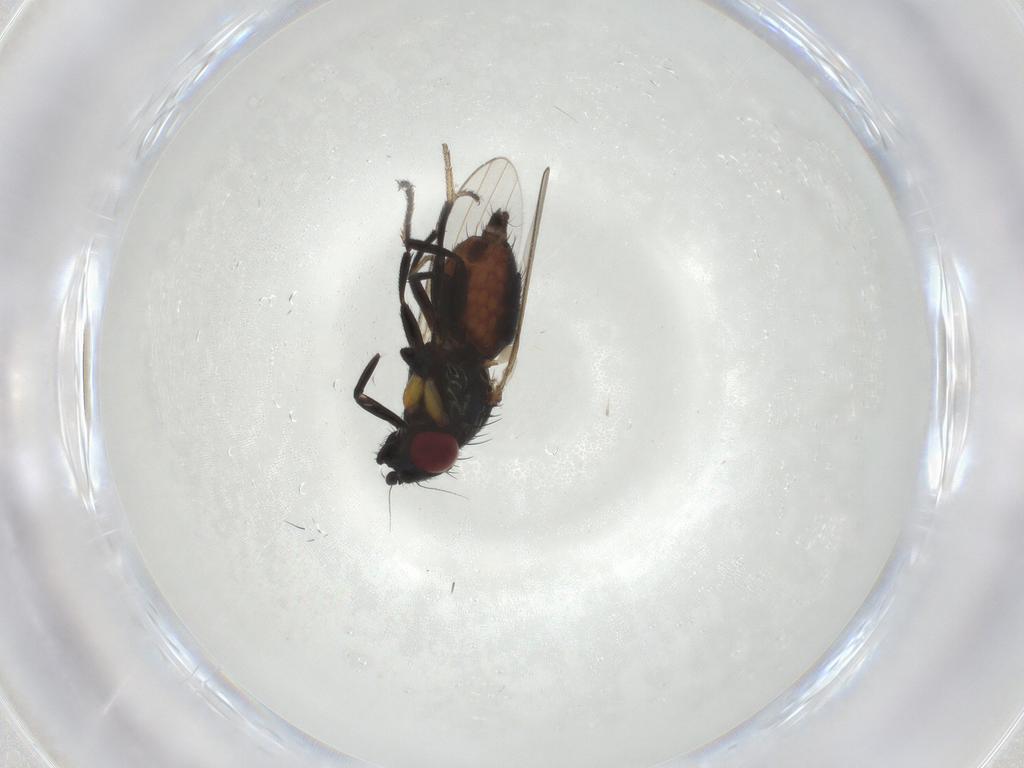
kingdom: Animalia
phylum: Arthropoda
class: Insecta
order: Diptera
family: Milichiidae
